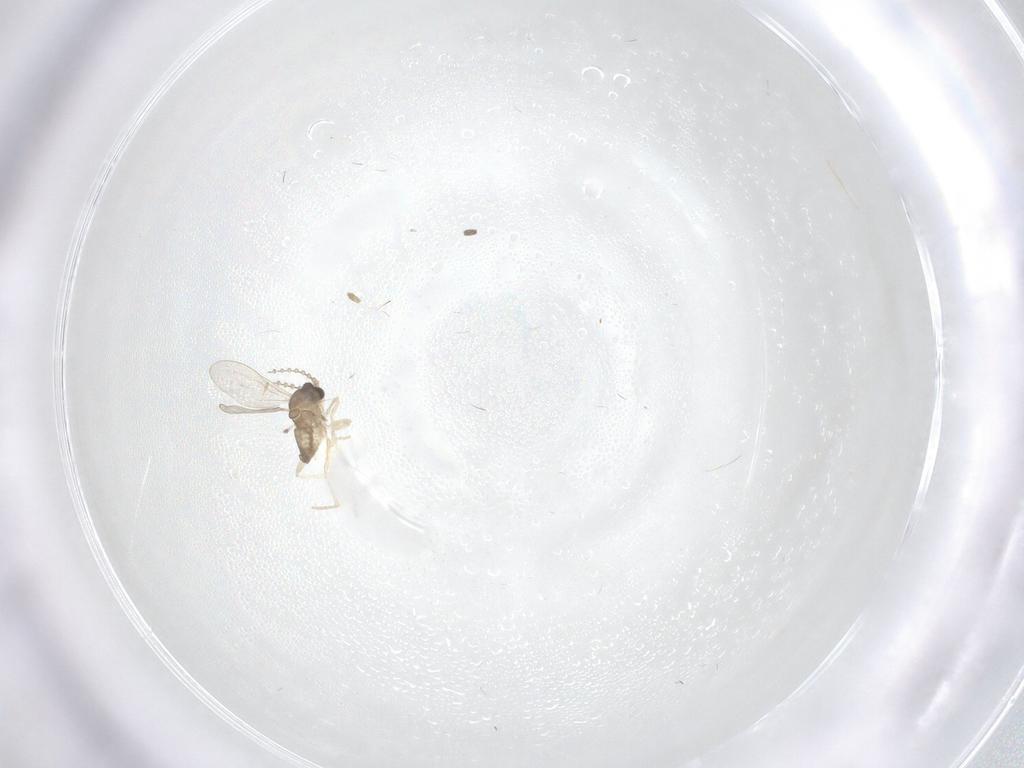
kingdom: Animalia
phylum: Arthropoda
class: Insecta
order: Diptera
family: Cecidomyiidae
